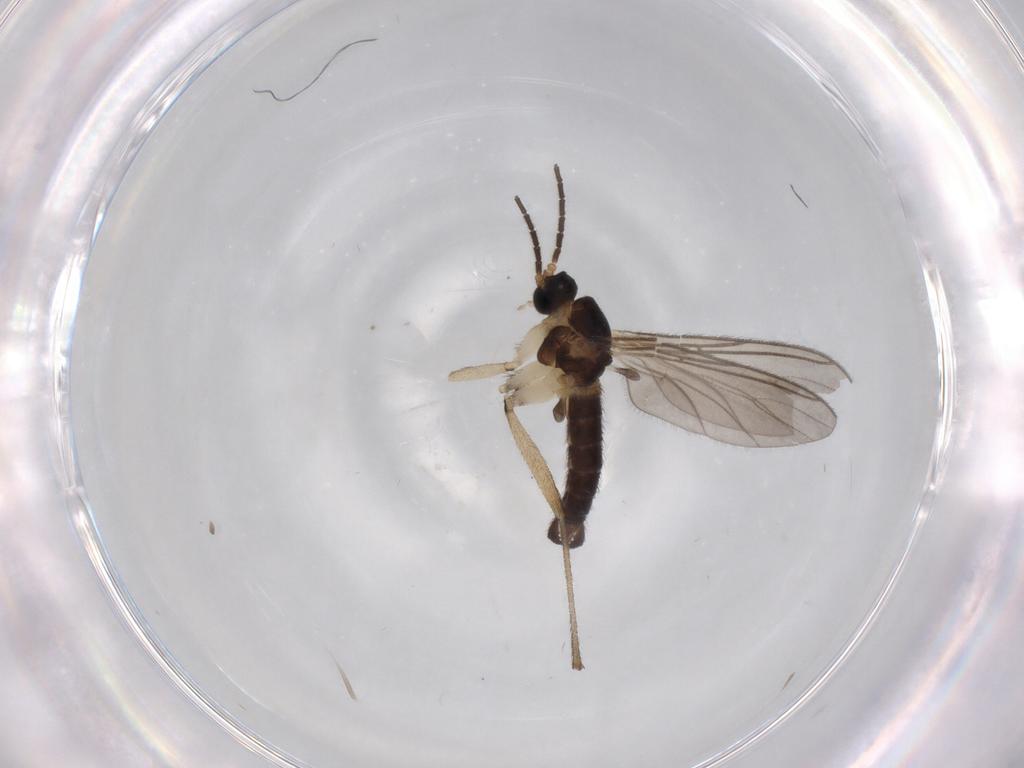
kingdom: Animalia
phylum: Arthropoda
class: Insecta
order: Diptera
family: Sciaridae
